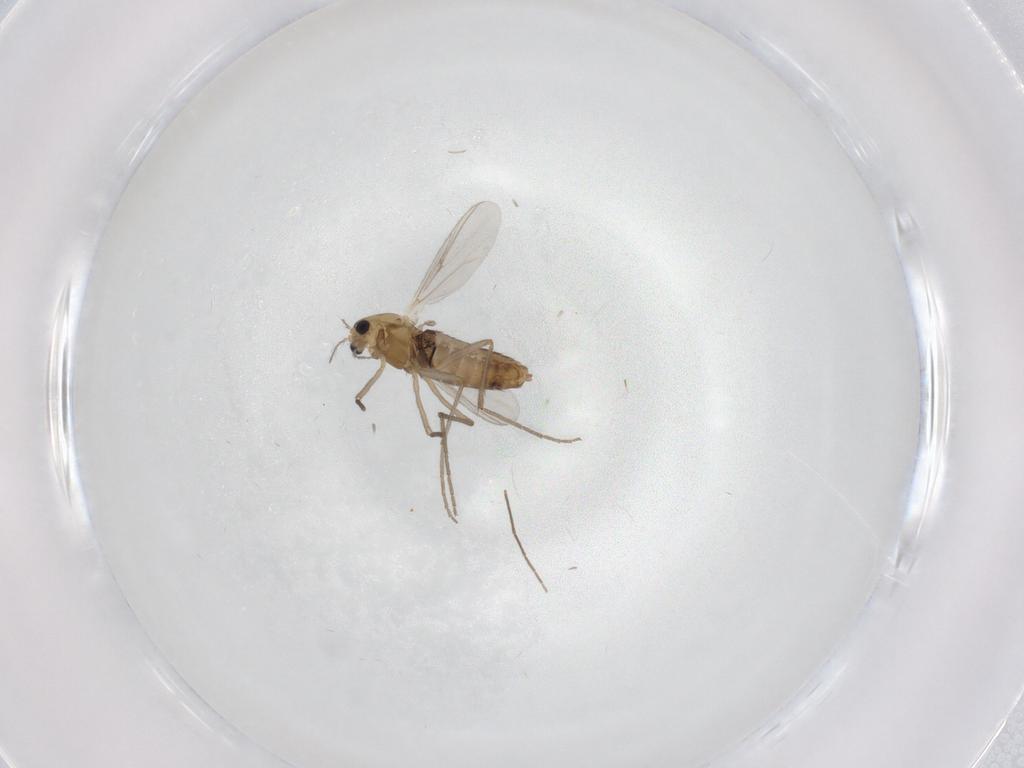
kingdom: Animalia
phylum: Arthropoda
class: Insecta
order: Diptera
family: Chironomidae
